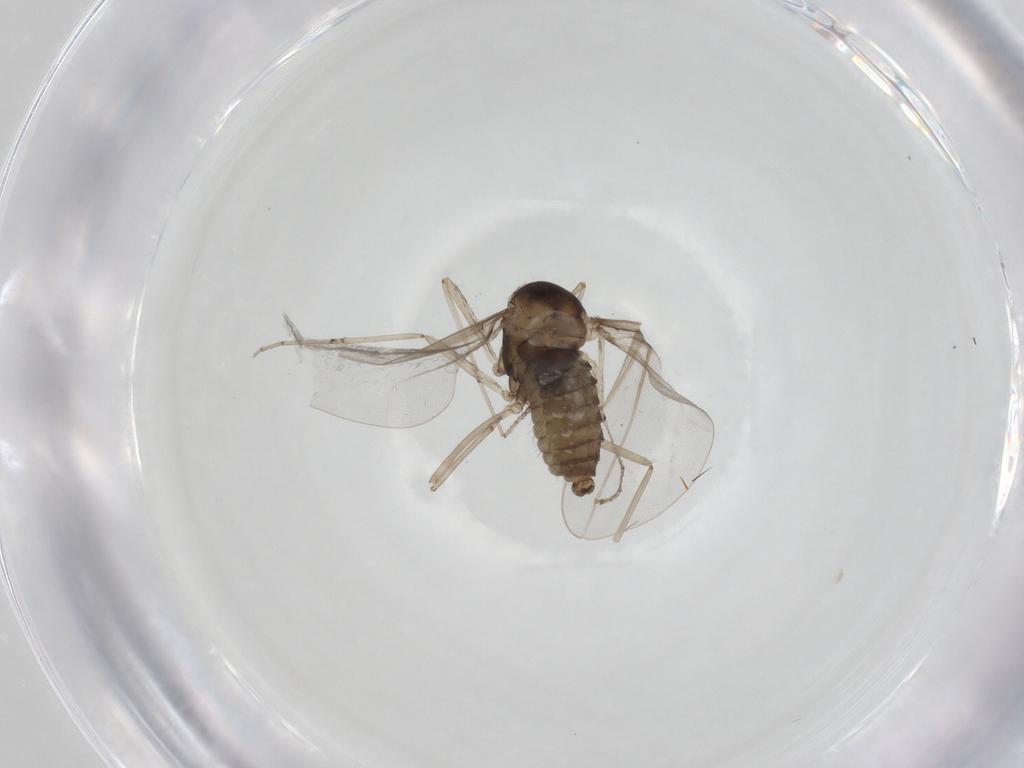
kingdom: Animalia
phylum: Arthropoda
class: Insecta
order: Diptera
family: Cecidomyiidae
